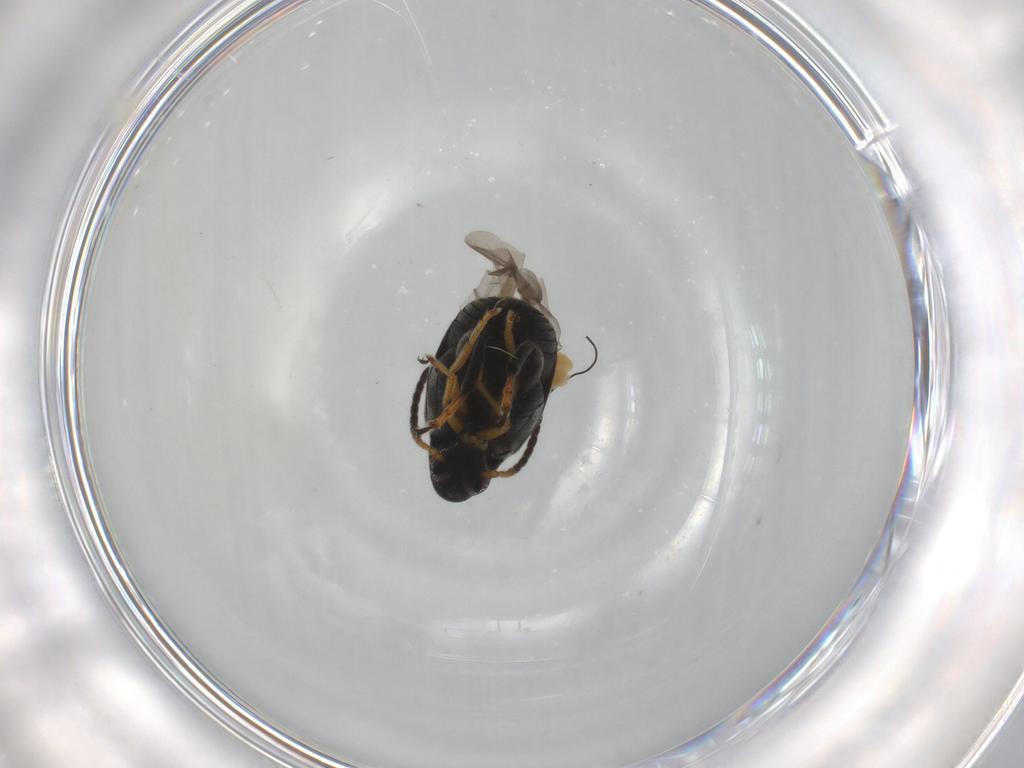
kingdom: Animalia
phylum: Arthropoda
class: Insecta
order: Coleoptera
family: Chrysomelidae
